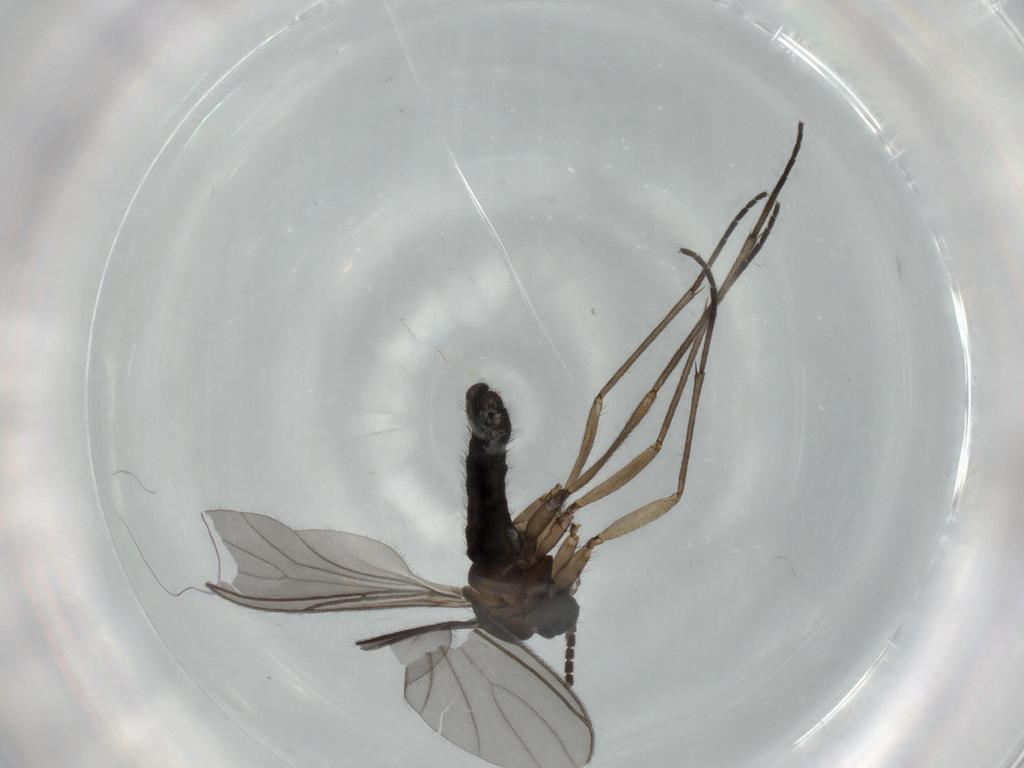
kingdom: Animalia
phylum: Arthropoda
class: Insecta
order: Diptera
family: Sciaridae
